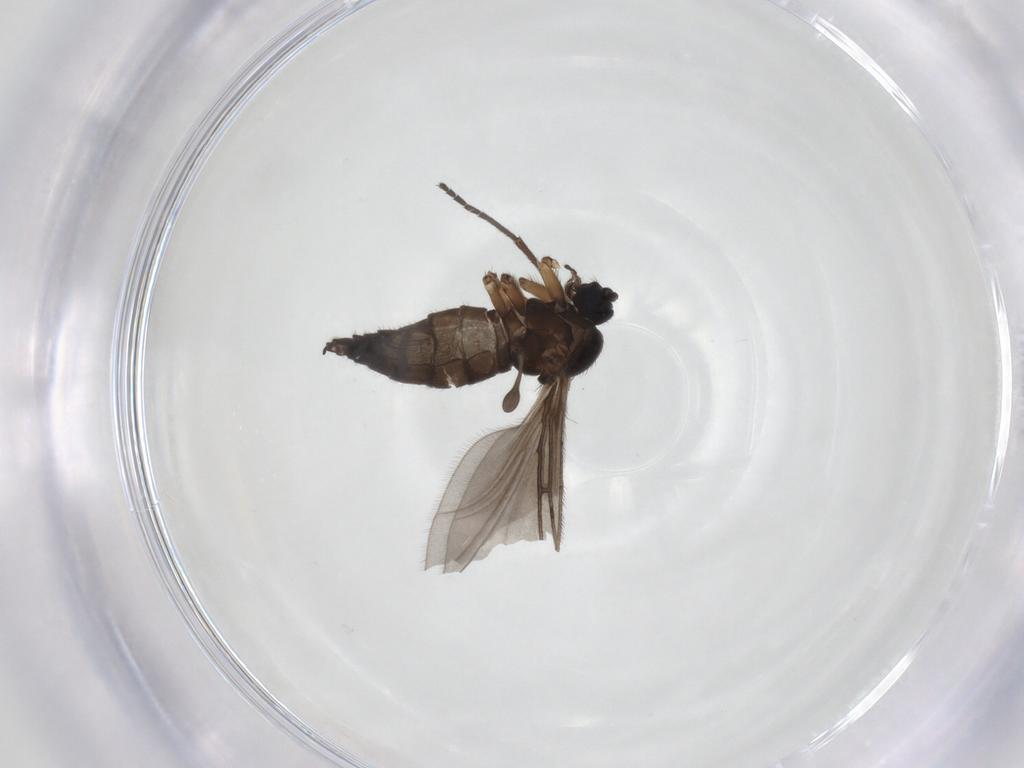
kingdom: Animalia
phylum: Arthropoda
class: Insecta
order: Diptera
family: Sciaridae
